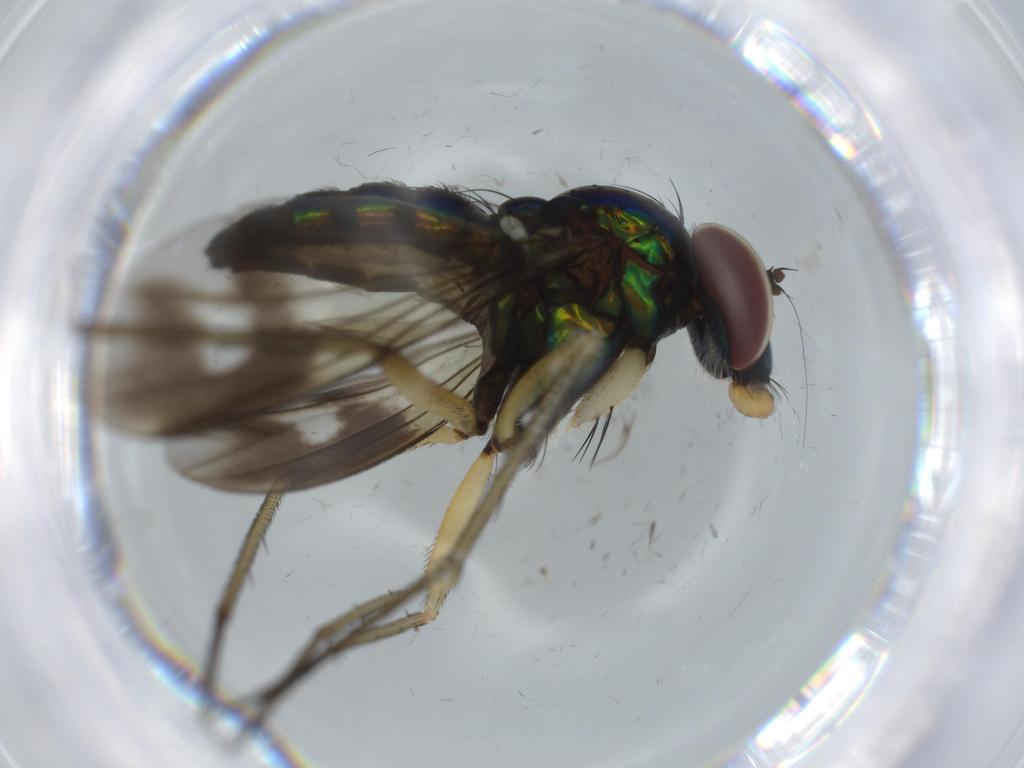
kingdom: Animalia
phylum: Arthropoda
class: Insecta
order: Diptera
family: Dolichopodidae
